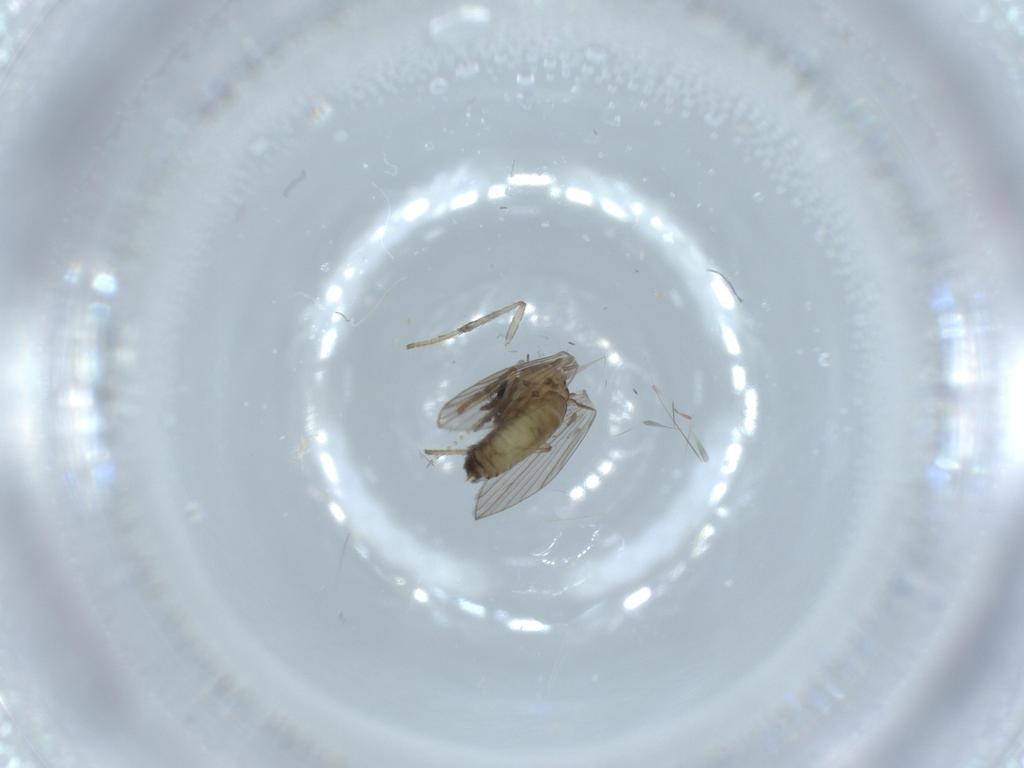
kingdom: Animalia
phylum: Arthropoda
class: Insecta
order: Diptera
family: Psychodidae
